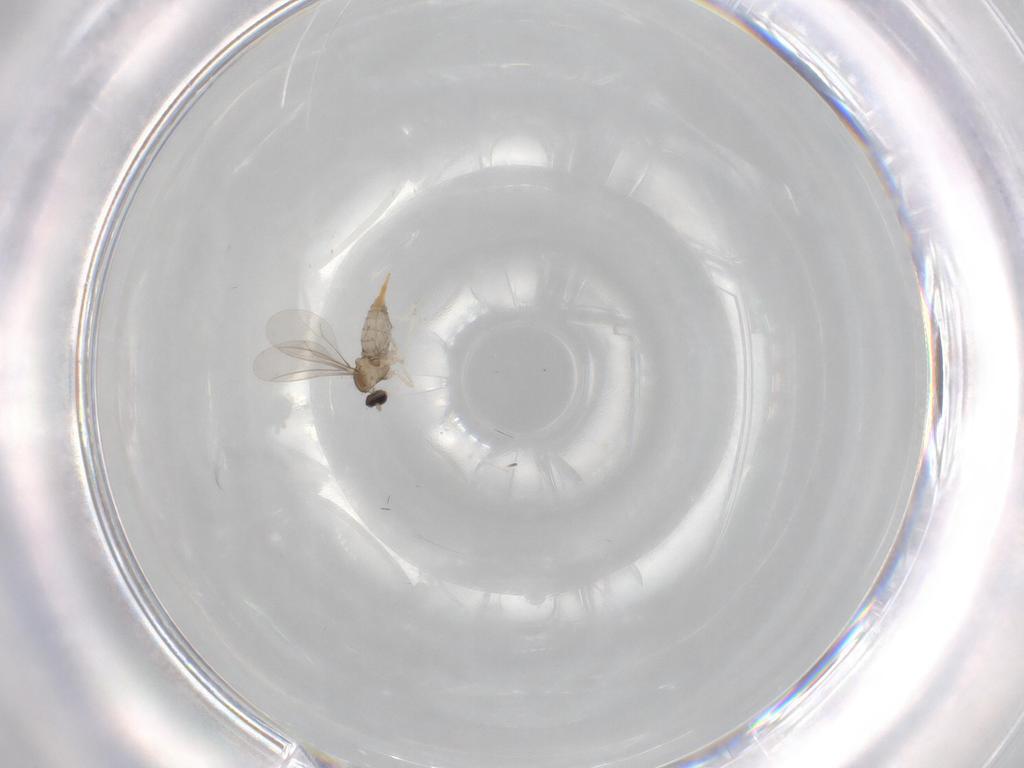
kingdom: Animalia
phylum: Arthropoda
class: Insecta
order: Diptera
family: Cecidomyiidae
